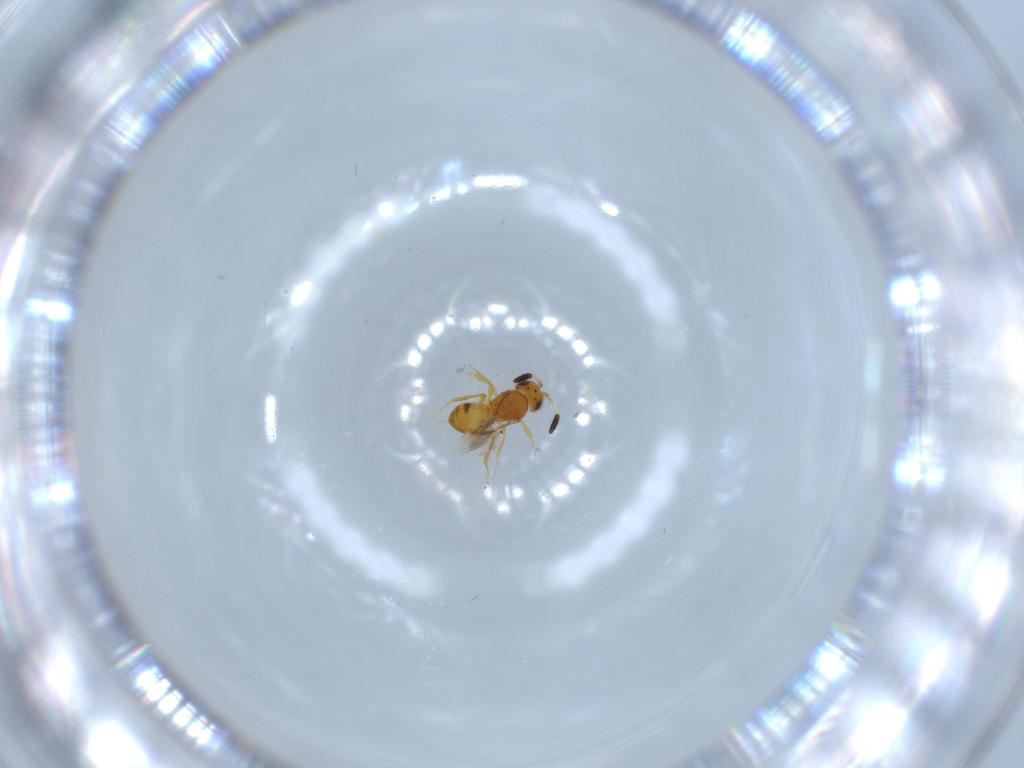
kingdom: Animalia
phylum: Arthropoda
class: Insecta
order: Hymenoptera
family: Scelionidae
